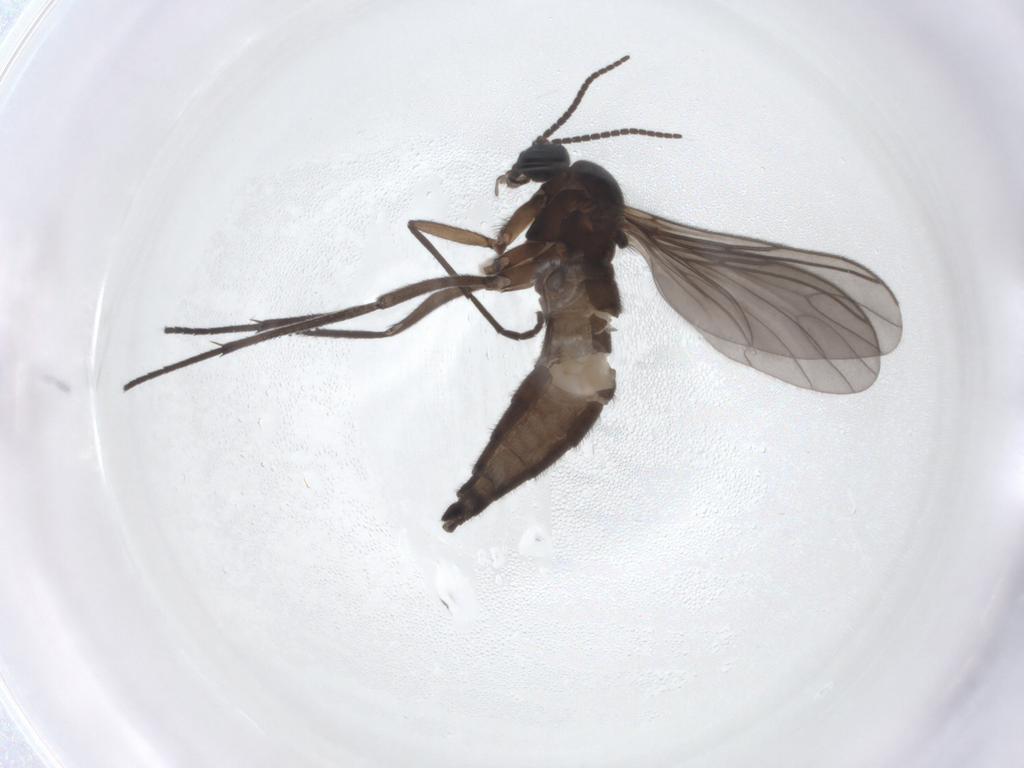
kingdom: Animalia
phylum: Arthropoda
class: Insecta
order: Diptera
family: Sciaridae
